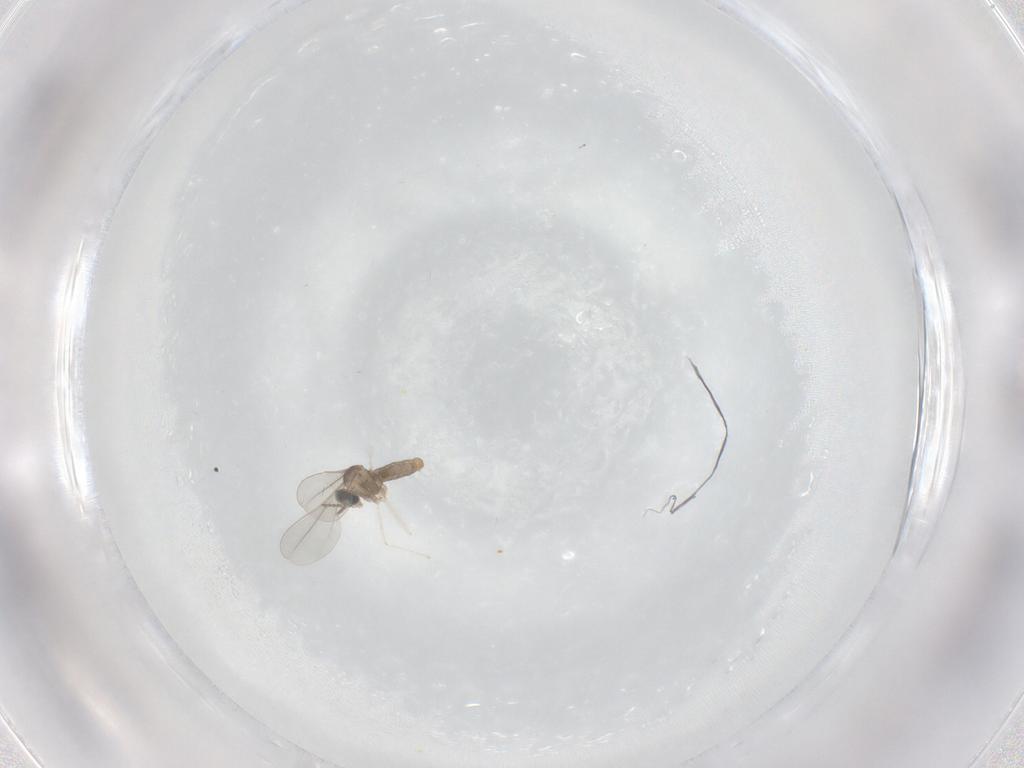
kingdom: Animalia
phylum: Arthropoda
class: Insecta
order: Diptera
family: Cecidomyiidae
